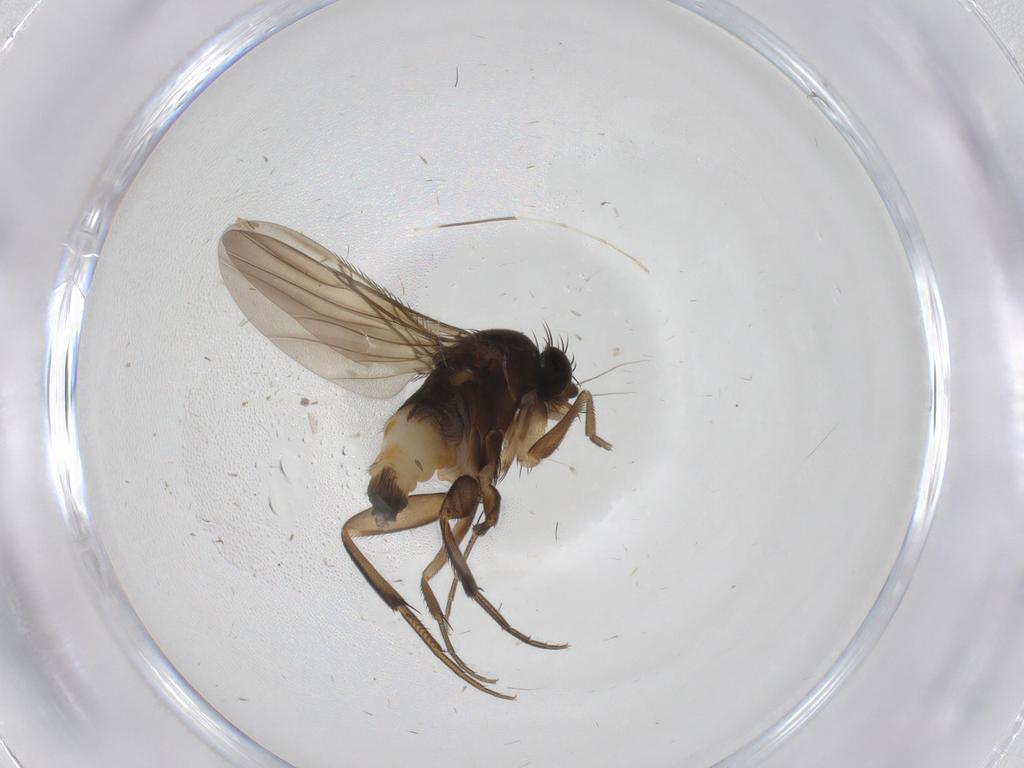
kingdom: Animalia
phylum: Arthropoda
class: Insecta
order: Diptera
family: Phoridae
